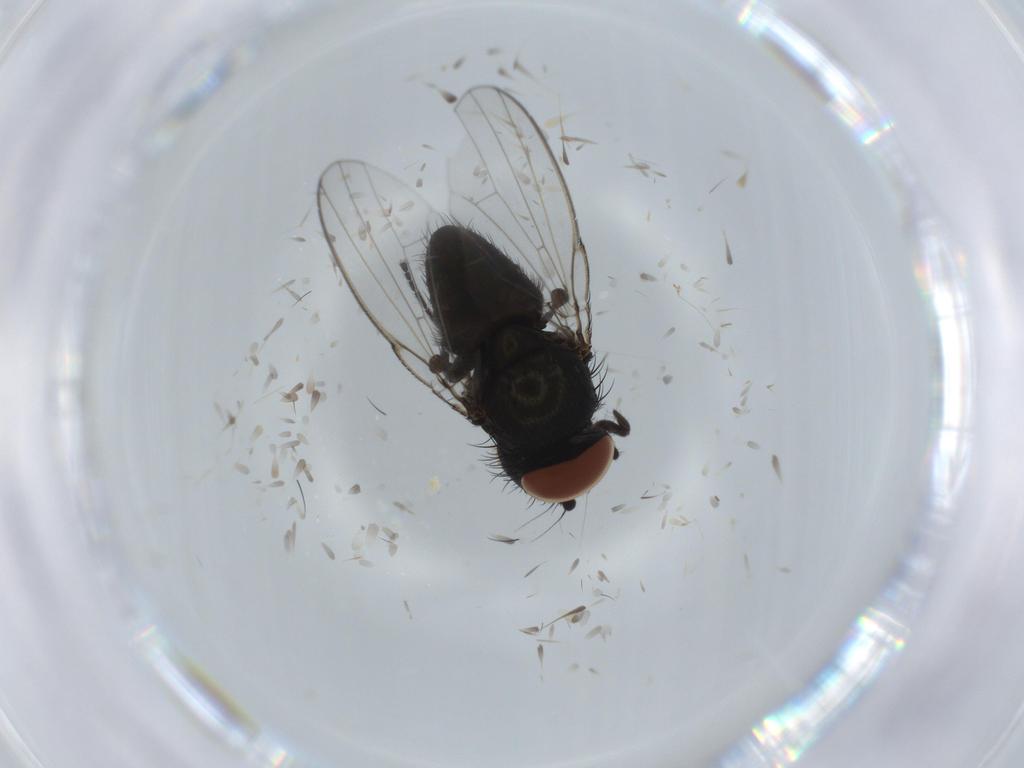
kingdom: Animalia
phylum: Arthropoda
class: Insecta
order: Diptera
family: Milichiidae
